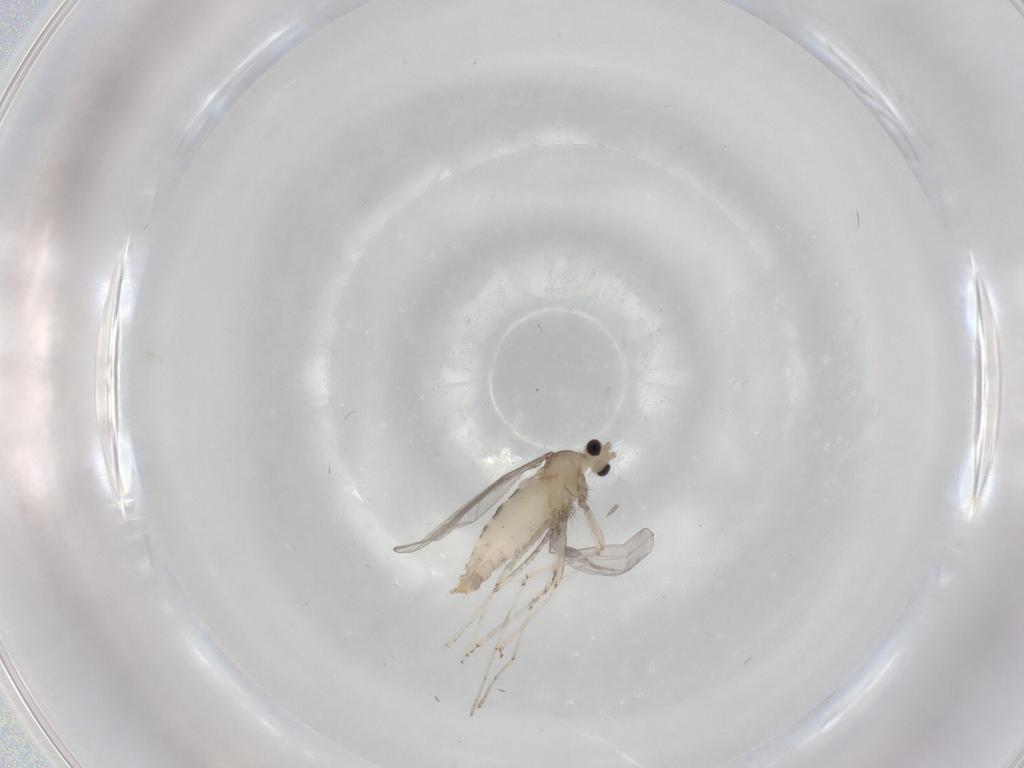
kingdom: Animalia
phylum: Arthropoda
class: Insecta
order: Diptera
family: Cecidomyiidae
